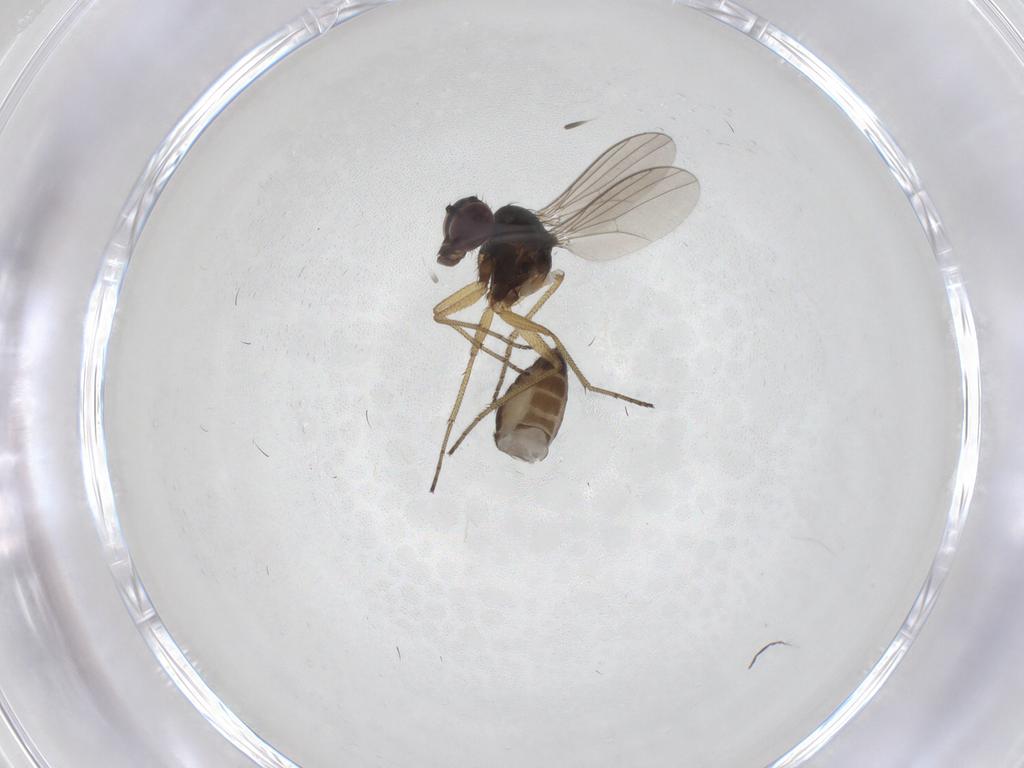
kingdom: Animalia
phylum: Arthropoda
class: Insecta
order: Diptera
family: Dolichopodidae
